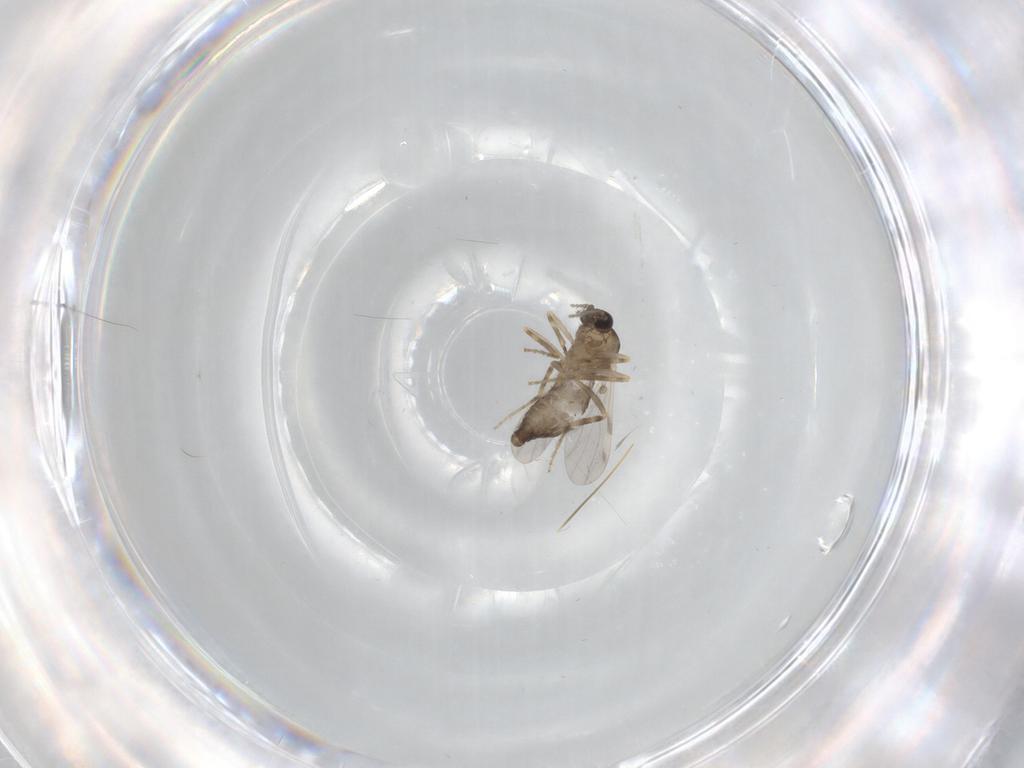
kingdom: Animalia
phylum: Arthropoda
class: Insecta
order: Diptera
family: Ceratopogonidae
